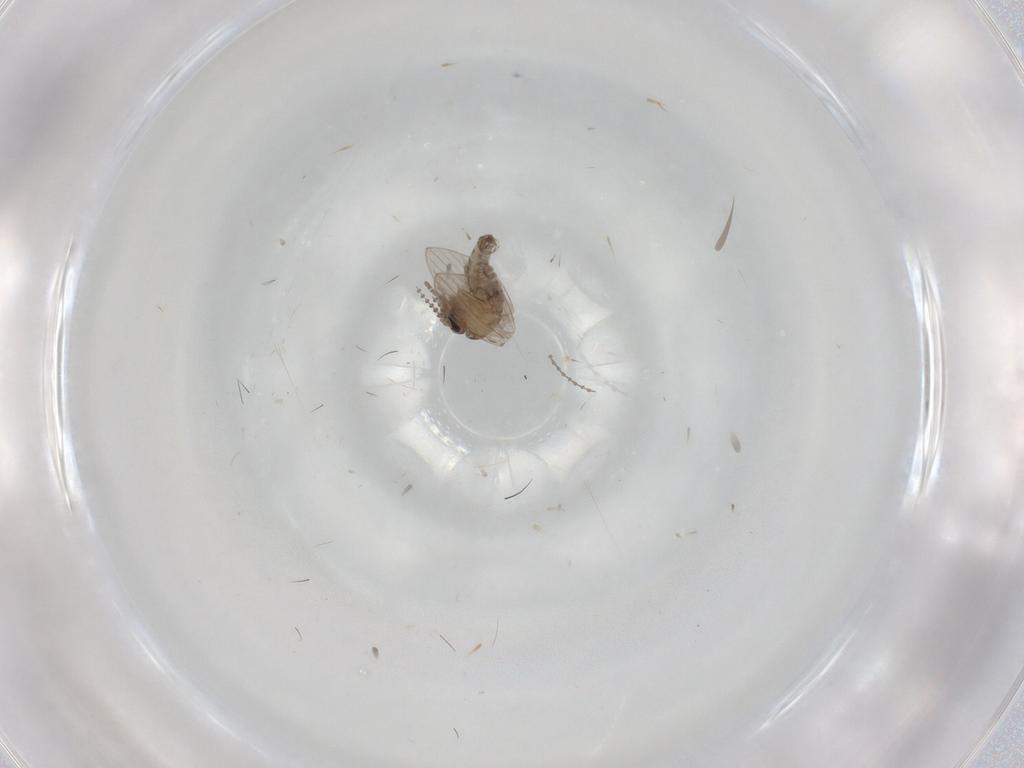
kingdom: Animalia
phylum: Arthropoda
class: Insecta
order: Diptera
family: Psychodidae
